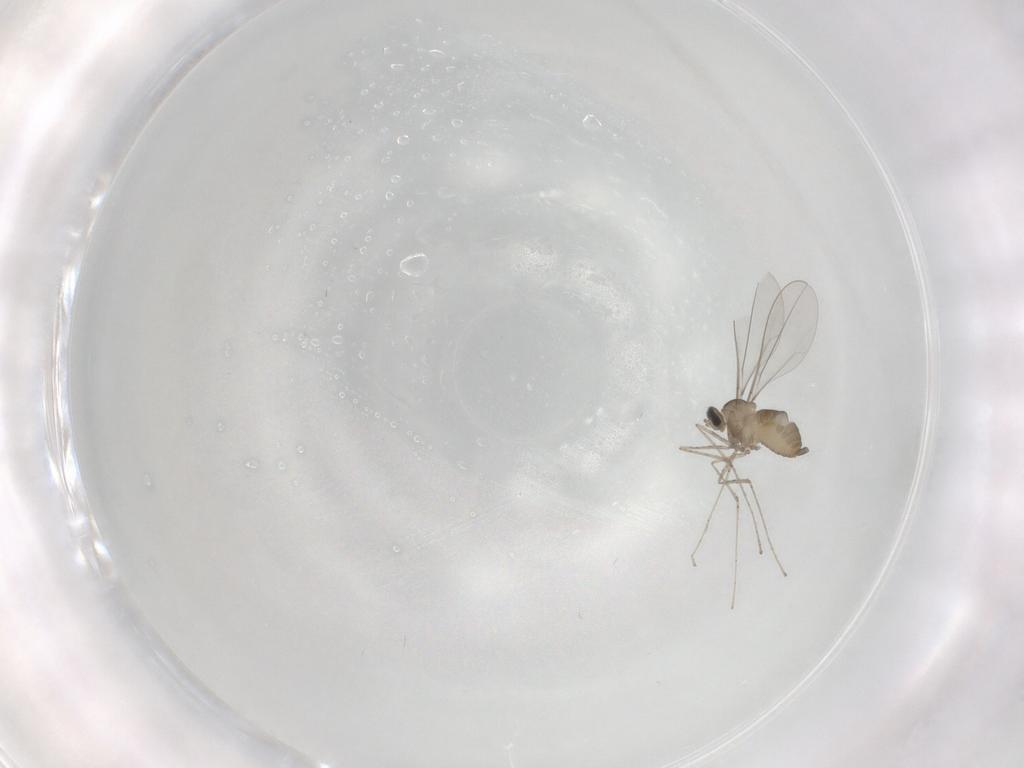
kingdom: Animalia
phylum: Arthropoda
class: Insecta
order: Diptera
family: Cecidomyiidae
